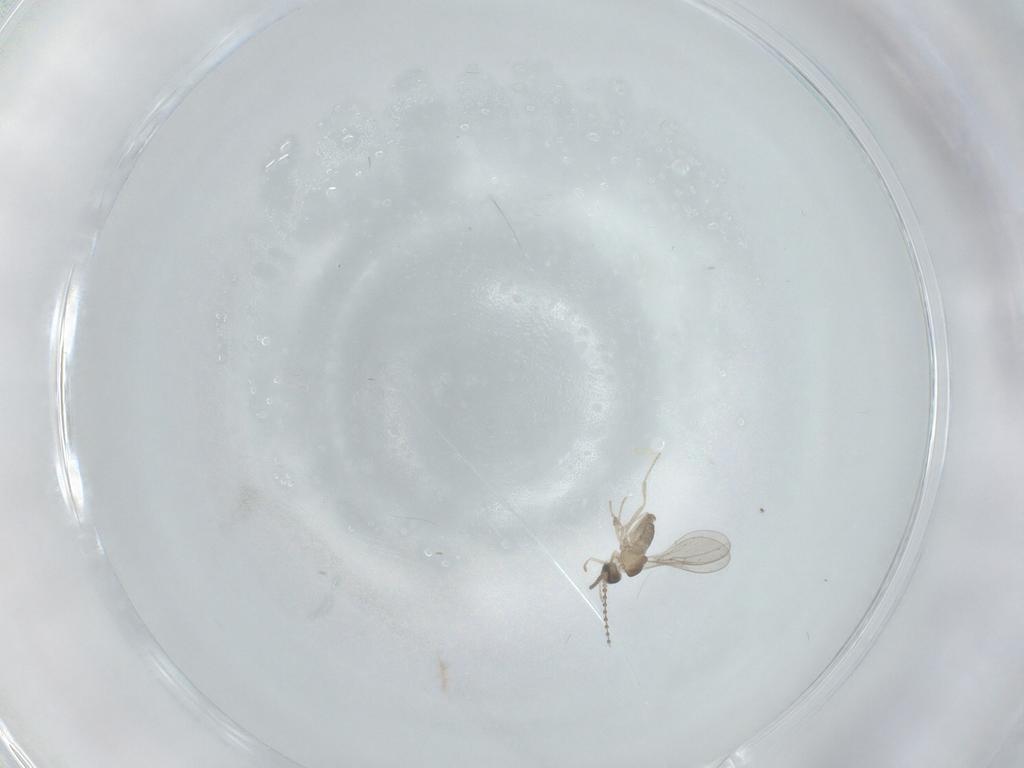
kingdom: Animalia
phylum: Arthropoda
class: Insecta
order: Diptera
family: Cecidomyiidae
